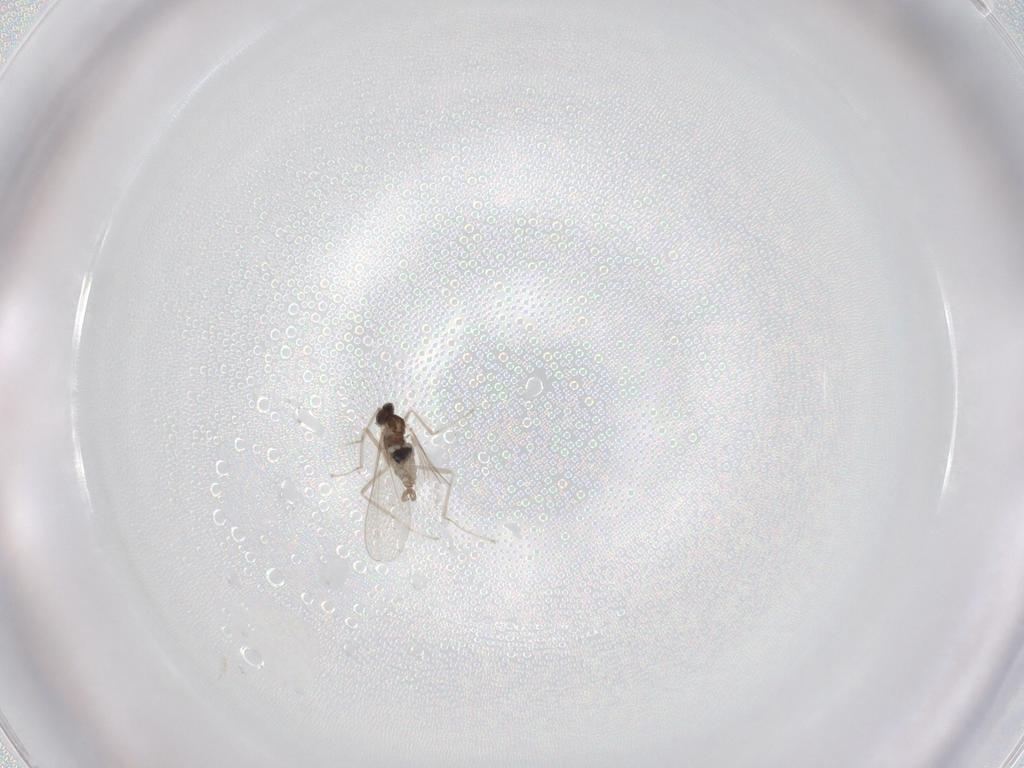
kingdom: Animalia
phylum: Arthropoda
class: Insecta
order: Diptera
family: Cecidomyiidae
